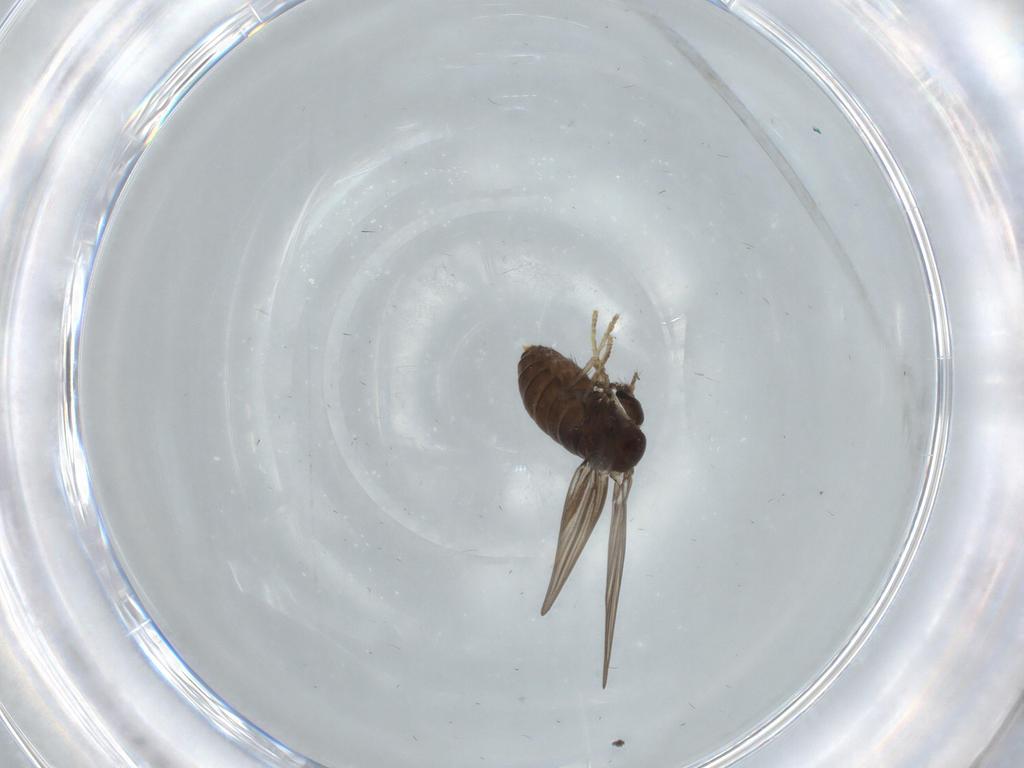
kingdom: Animalia
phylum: Arthropoda
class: Insecta
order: Diptera
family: Psychodidae
